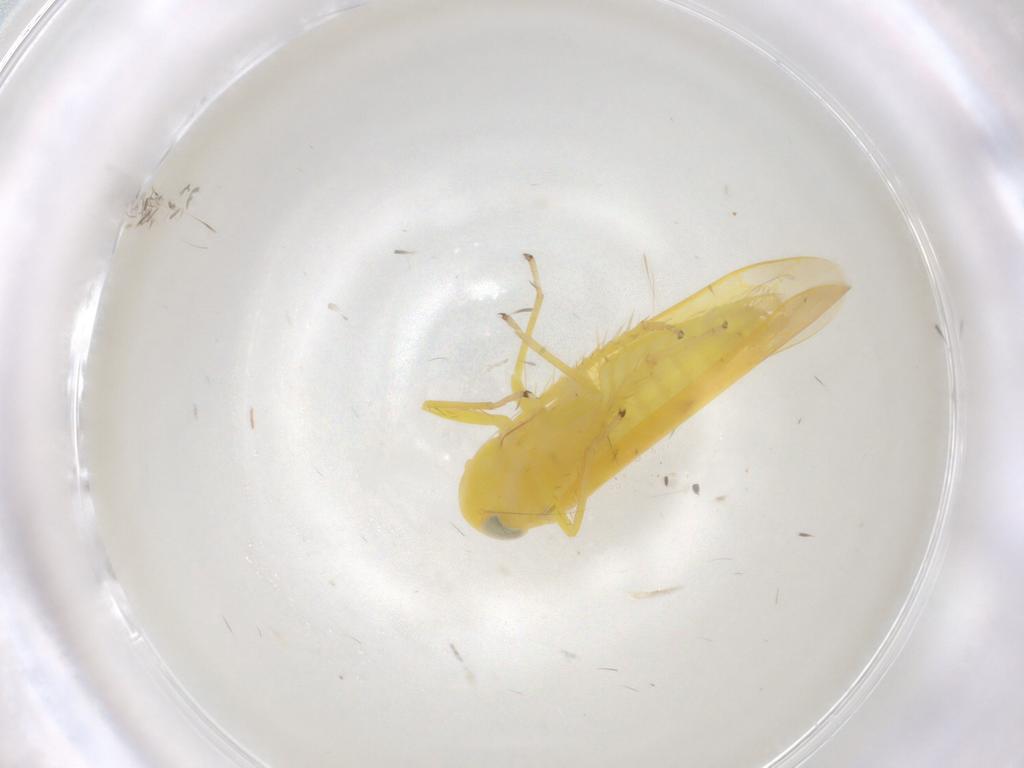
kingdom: Animalia
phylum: Arthropoda
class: Insecta
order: Hemiptera
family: Cicadellidae
